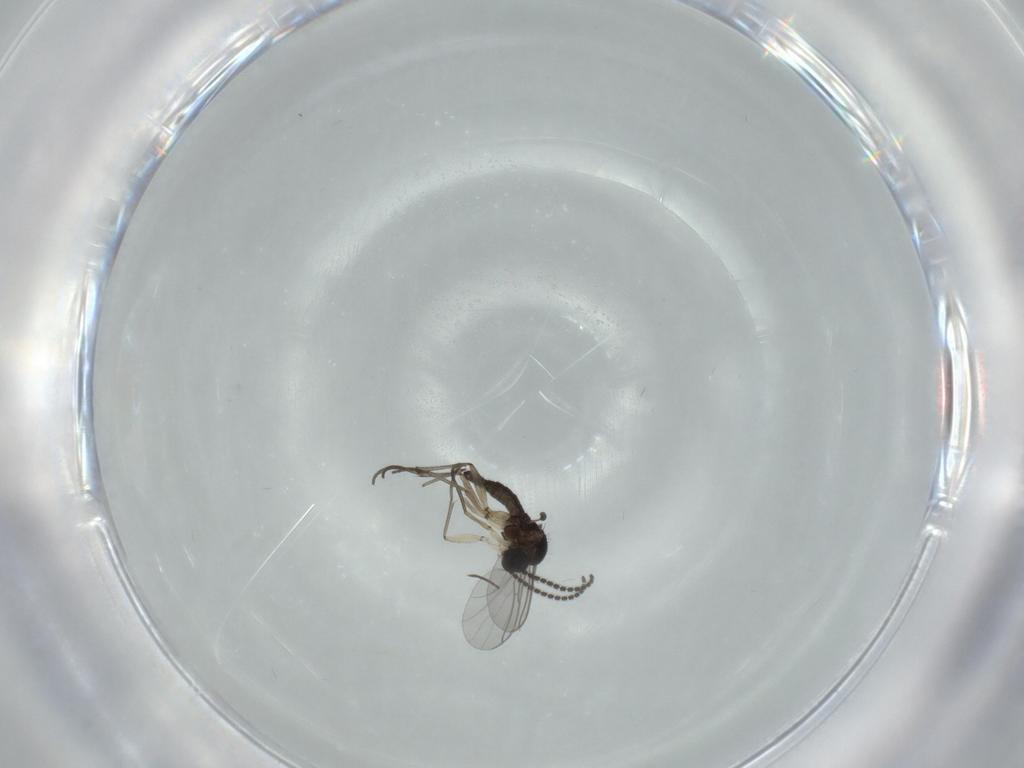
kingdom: Animalia
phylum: Arthropoda
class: Insecta
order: Diptera
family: Sciaridae
